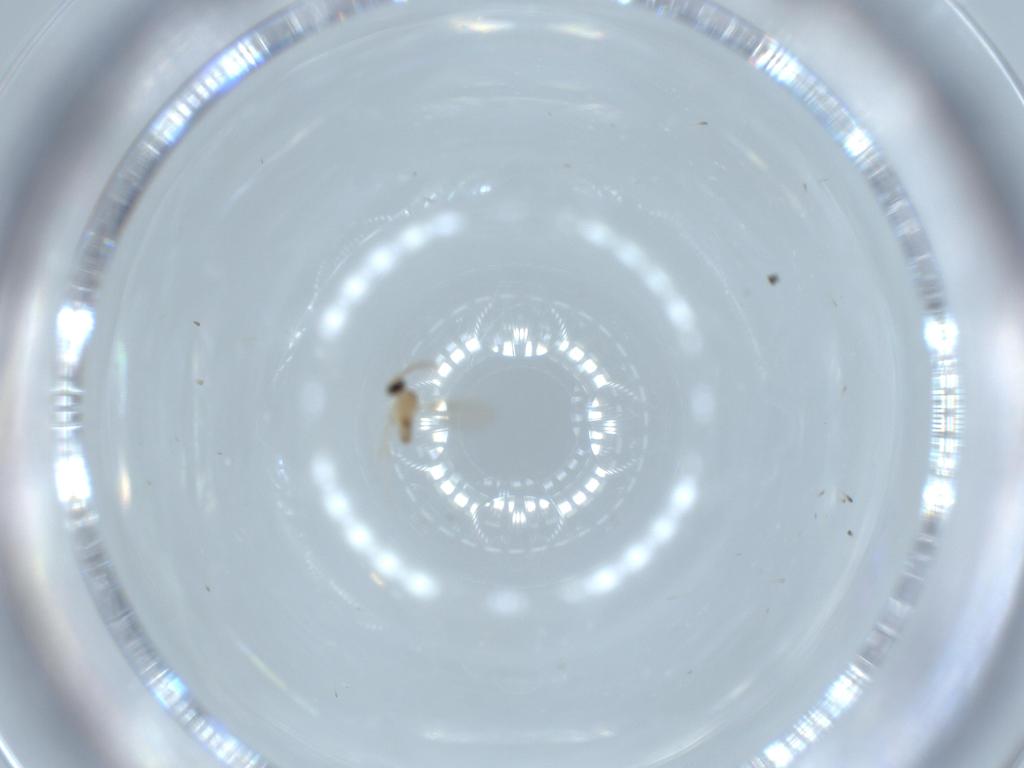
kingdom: Animalia
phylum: Arthropoda
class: Insecta
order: Diptera
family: Cecidomyiidae
